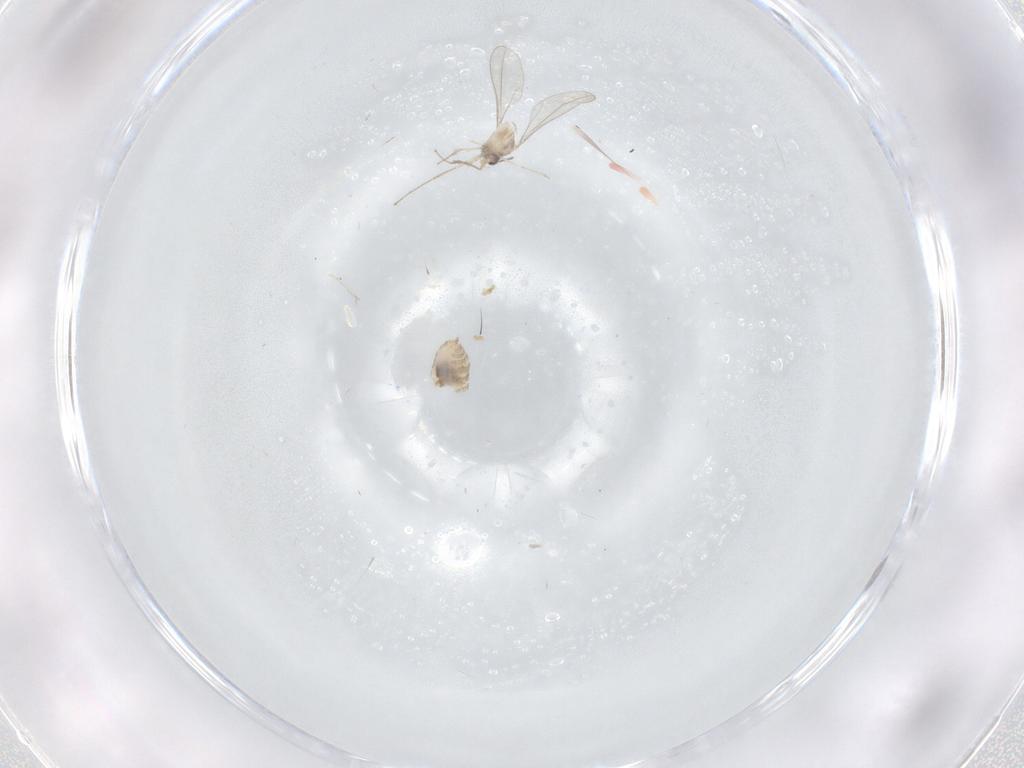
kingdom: Animalia
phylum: Arthropoda
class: Insecta
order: Diptera
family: Cecidomyiidae
